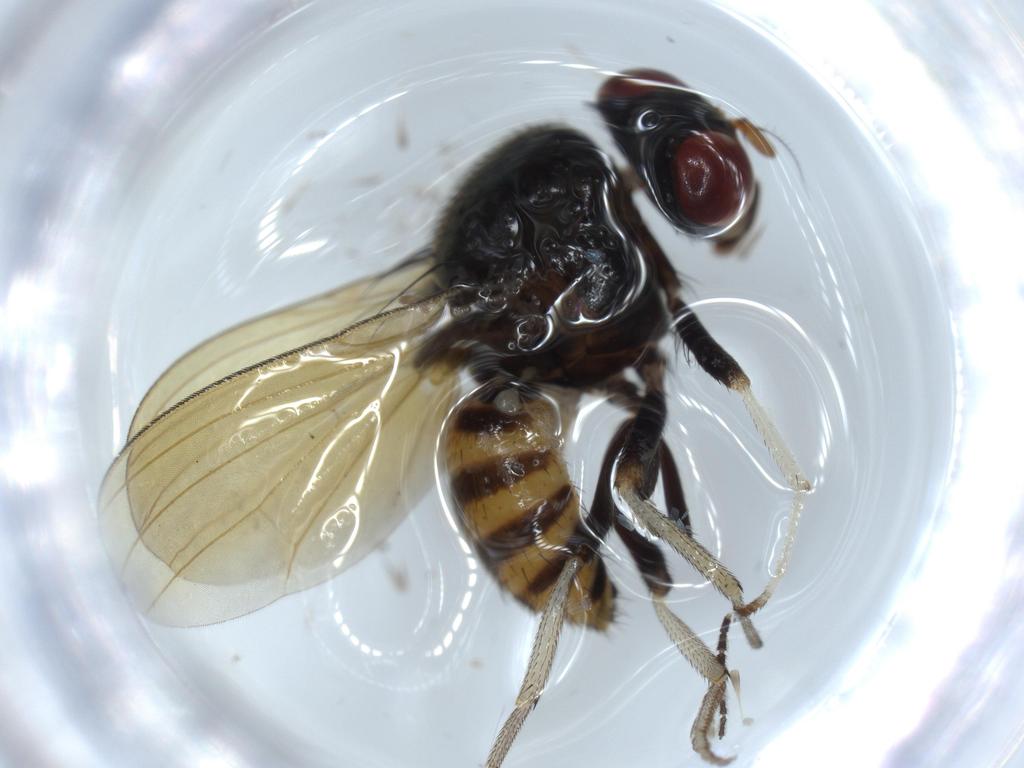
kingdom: Animalia
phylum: Arthropoda
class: Insecta
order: Diptera
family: Sciaridae
